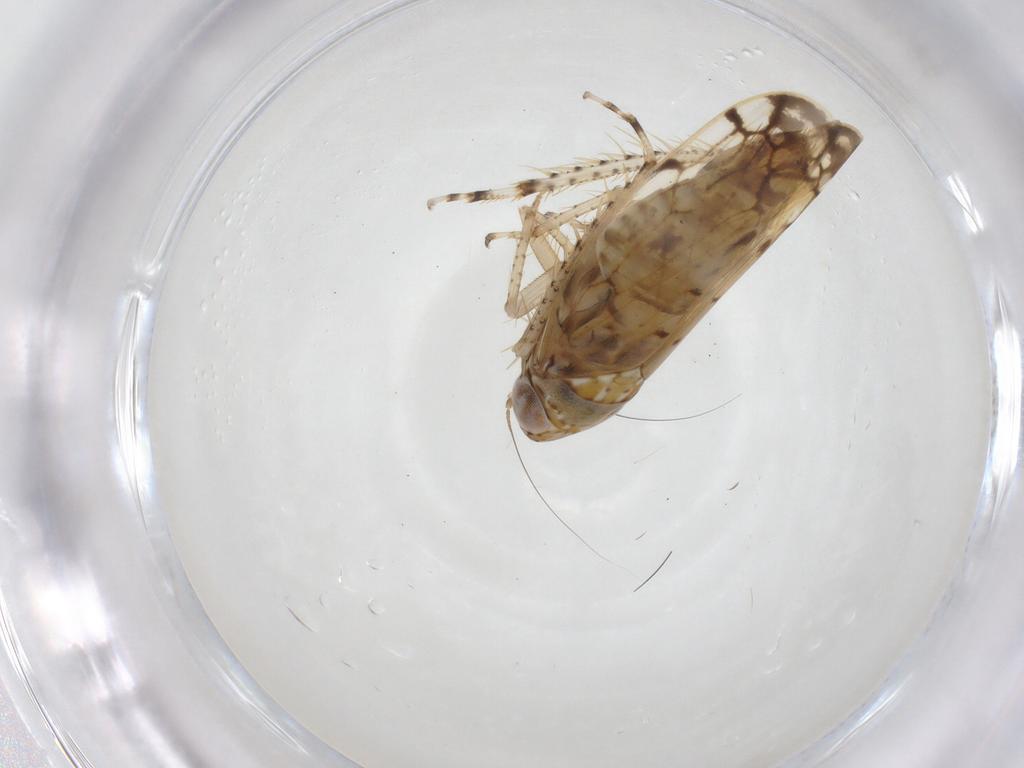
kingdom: Animalia
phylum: Arthropoda
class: Insecta
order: Hemiptera
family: Cicadellidae
